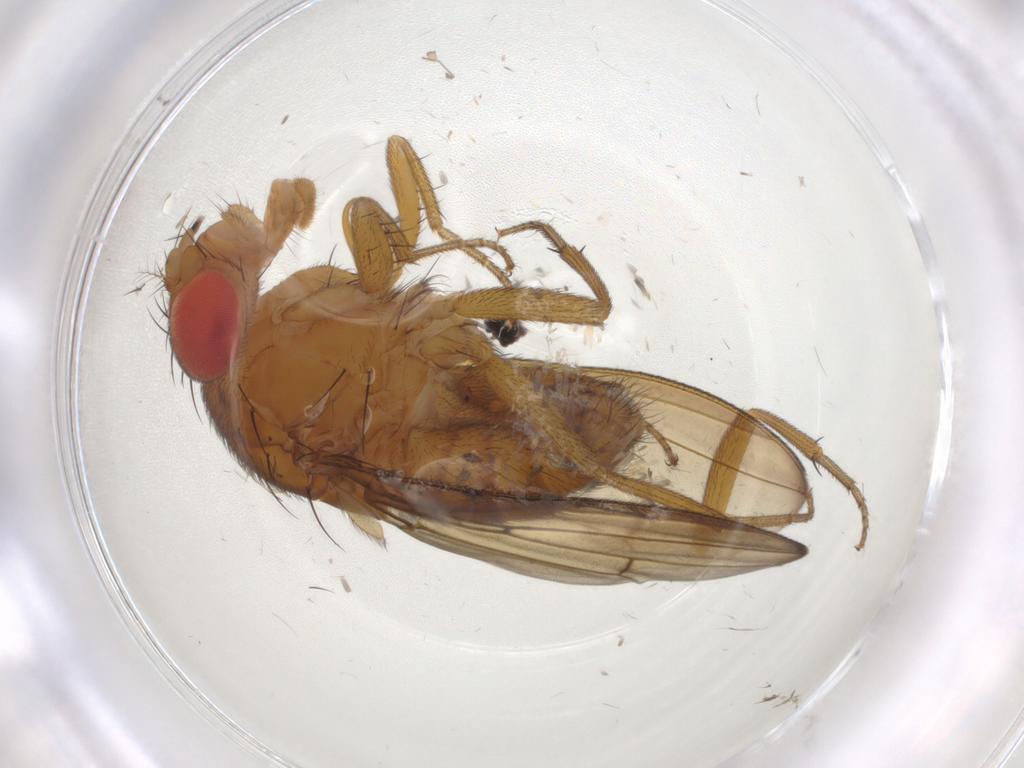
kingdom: Animalia
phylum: Arthropoda
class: Insecta
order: Diptera
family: Drosophilidae
